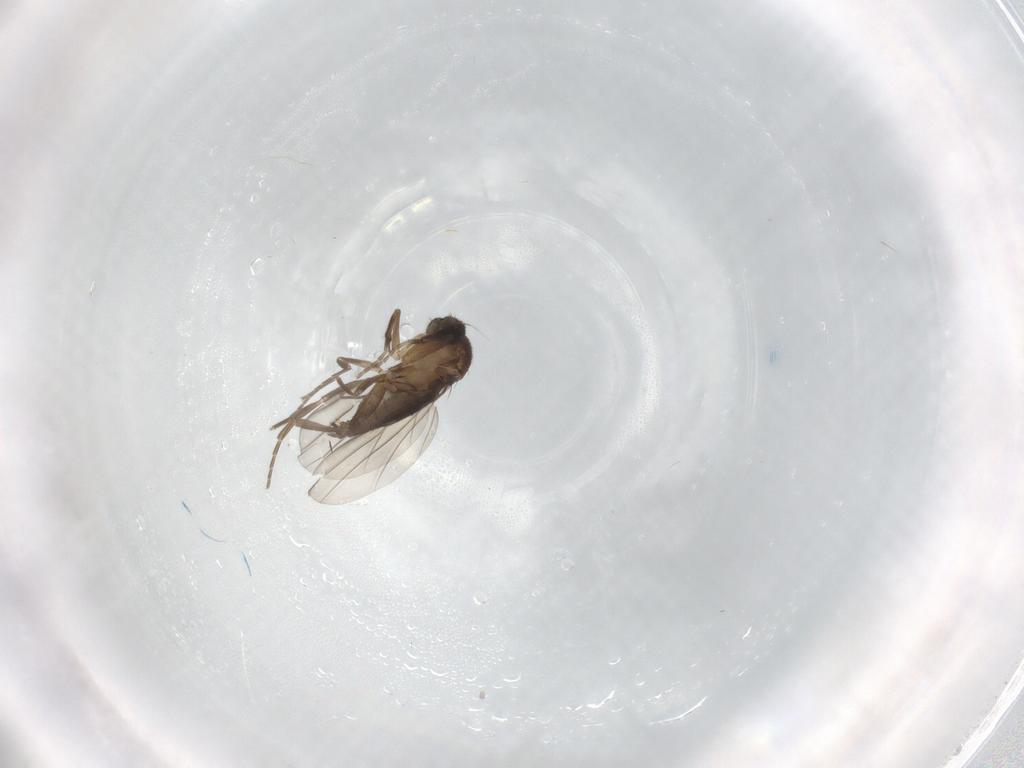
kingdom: Animalia
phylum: Arthropoda
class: Insecta
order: Diptera
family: Phoridae
